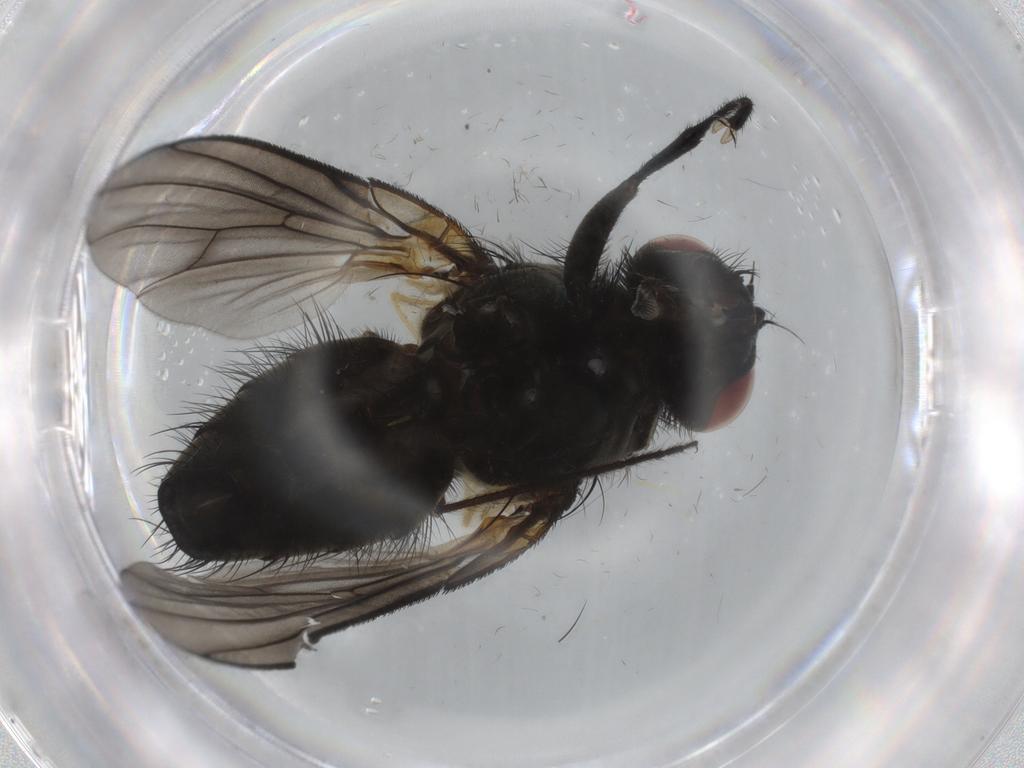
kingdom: Animalia
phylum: Arthropoda
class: Insecta
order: Diptera
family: Muscidae
